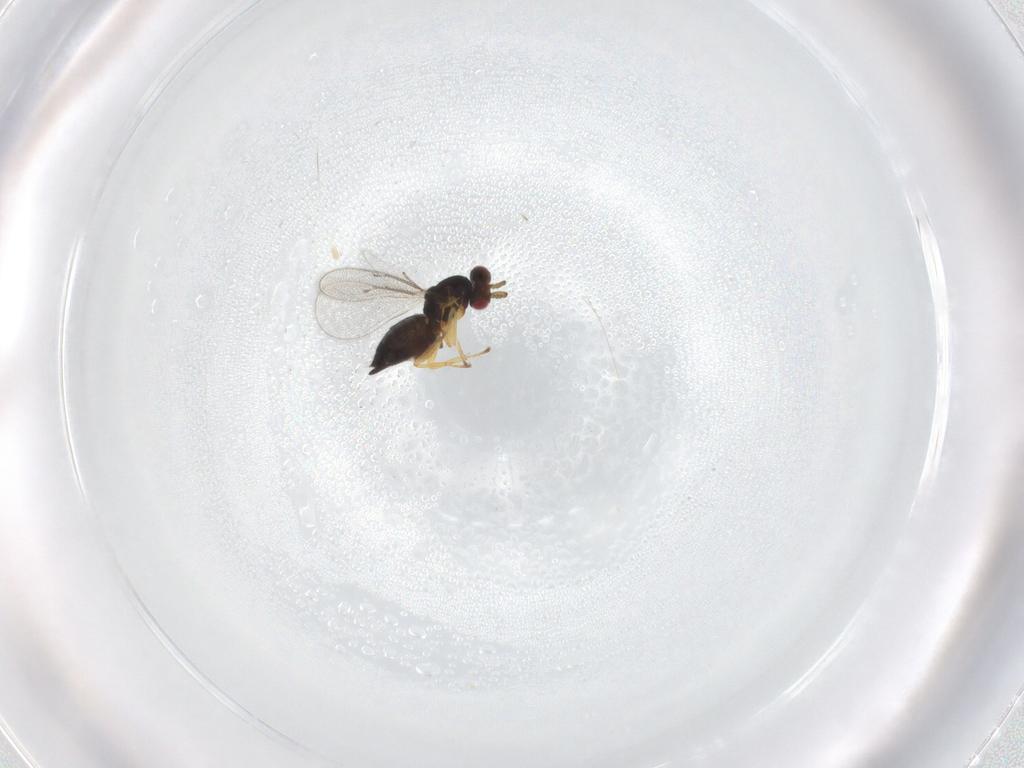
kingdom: Animalia
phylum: Arthropoda
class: Insecta
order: Hymenoptera
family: Eulophidae
